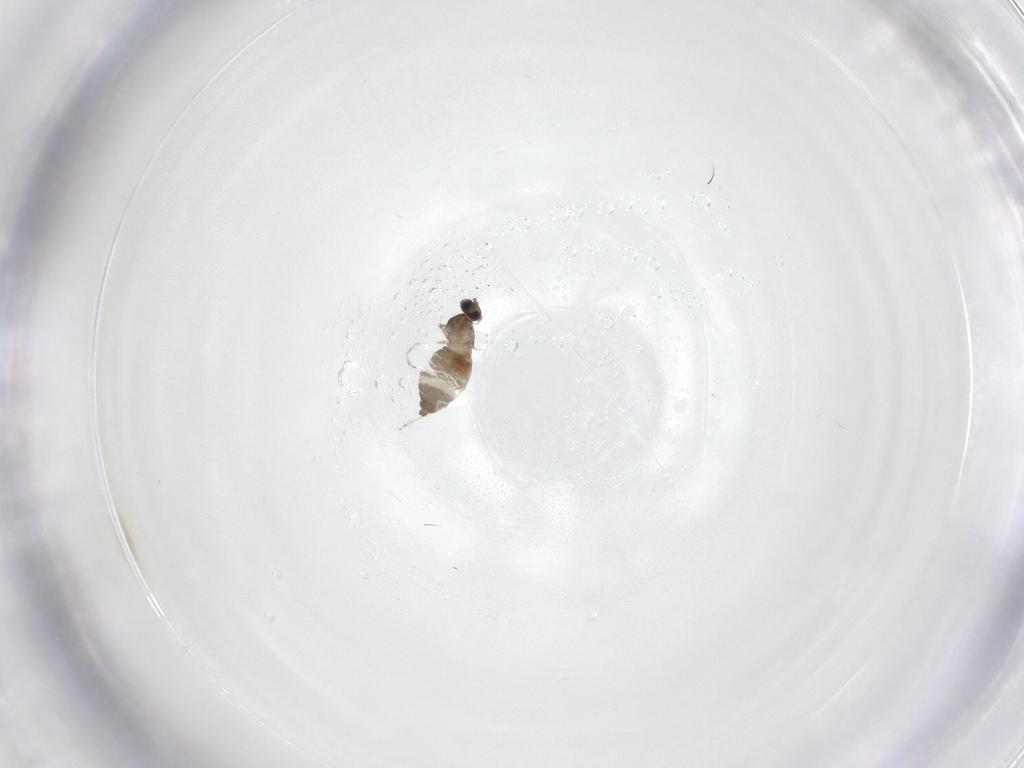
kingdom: Animalia
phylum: Arthropoda
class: Insecta
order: Diptera
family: Cecidomyiidae
